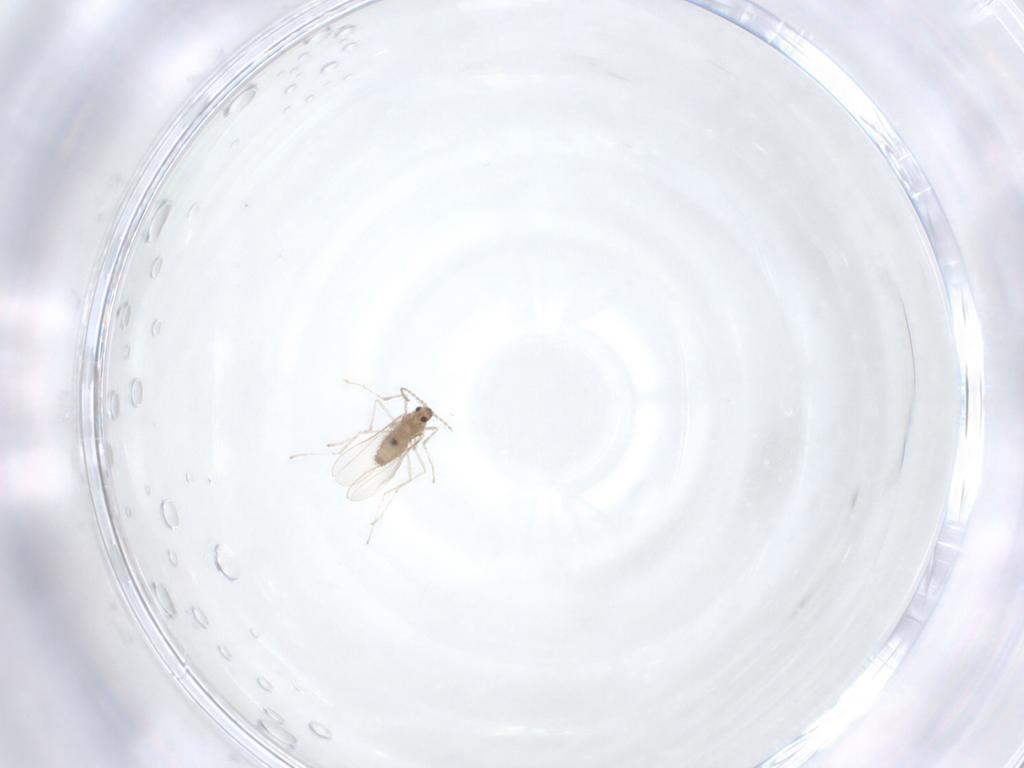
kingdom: Animalia
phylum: Arthropoda
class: Insecta
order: Diptera
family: Cecidomyiidae
